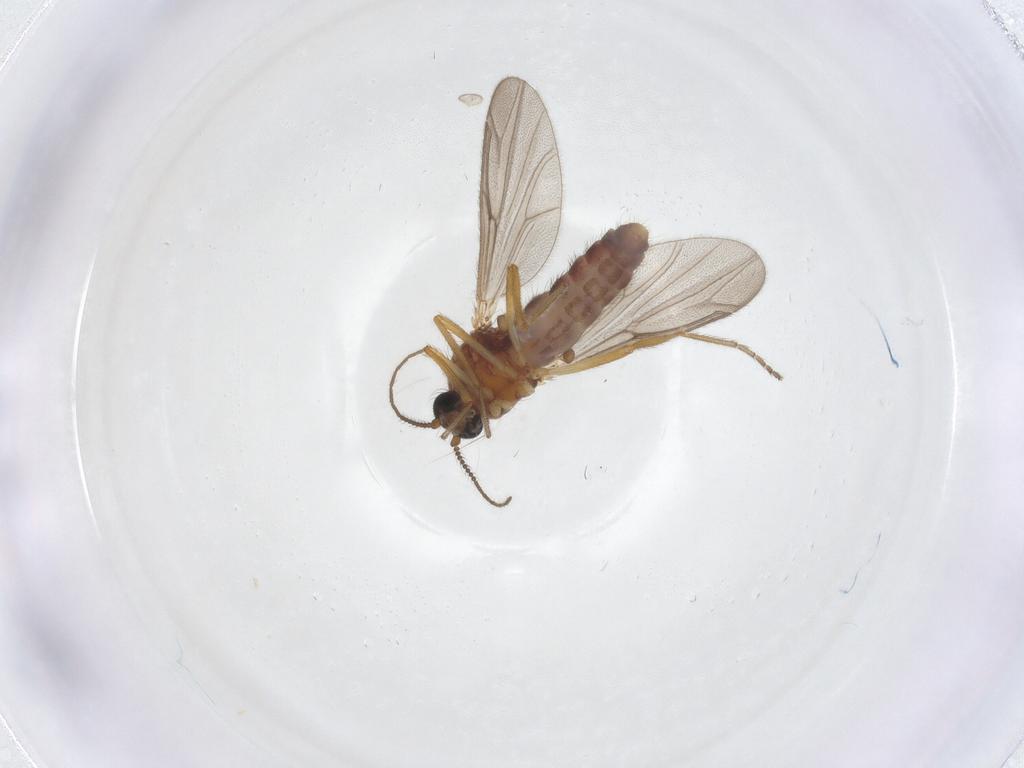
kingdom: Animalia
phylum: Arthropoda
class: Insecta
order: Diptera
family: Ceratopogonidae
